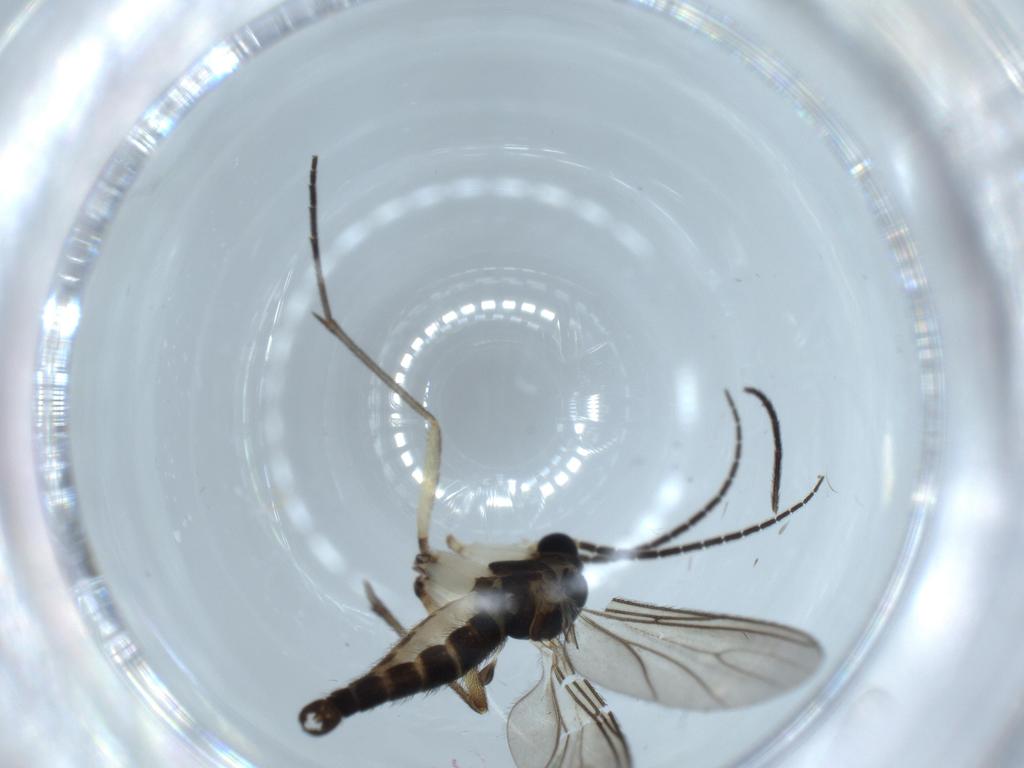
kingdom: Animalia
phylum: Arthropoda
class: Insecta
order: Diptera
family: Sciaridae
